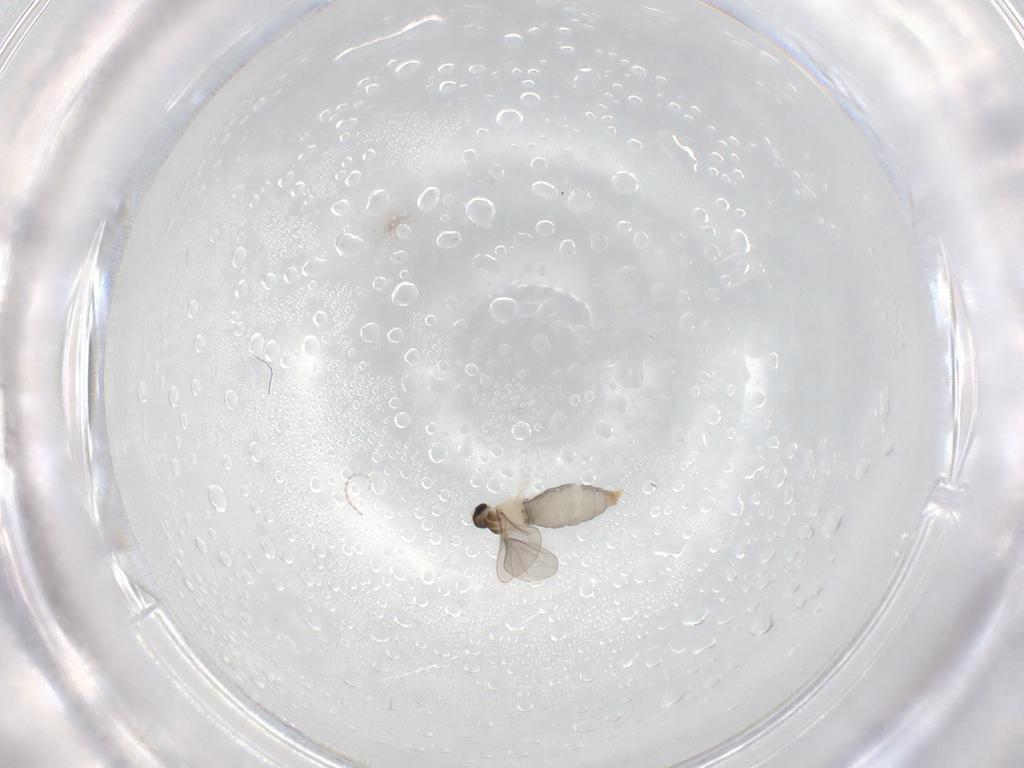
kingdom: Animalia
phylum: Arthropoda
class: Insecta
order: Diptera
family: Cecidomyiidae
